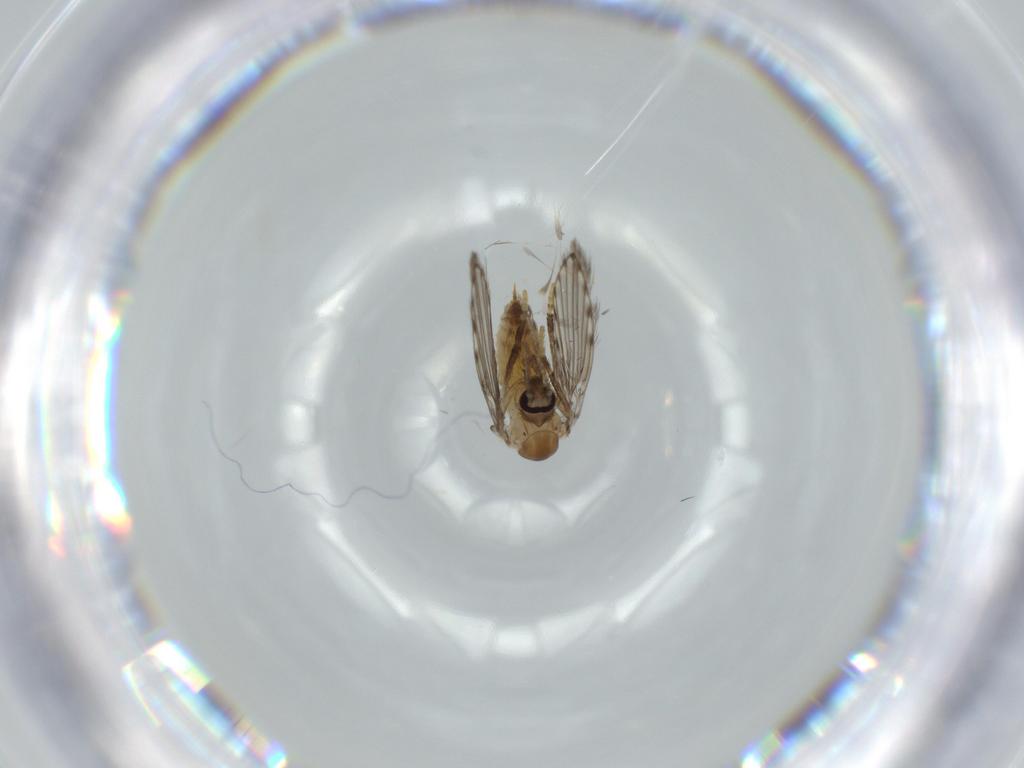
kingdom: Animalia
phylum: Arthropoda
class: Insecta
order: Diptera
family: Psychodidae
